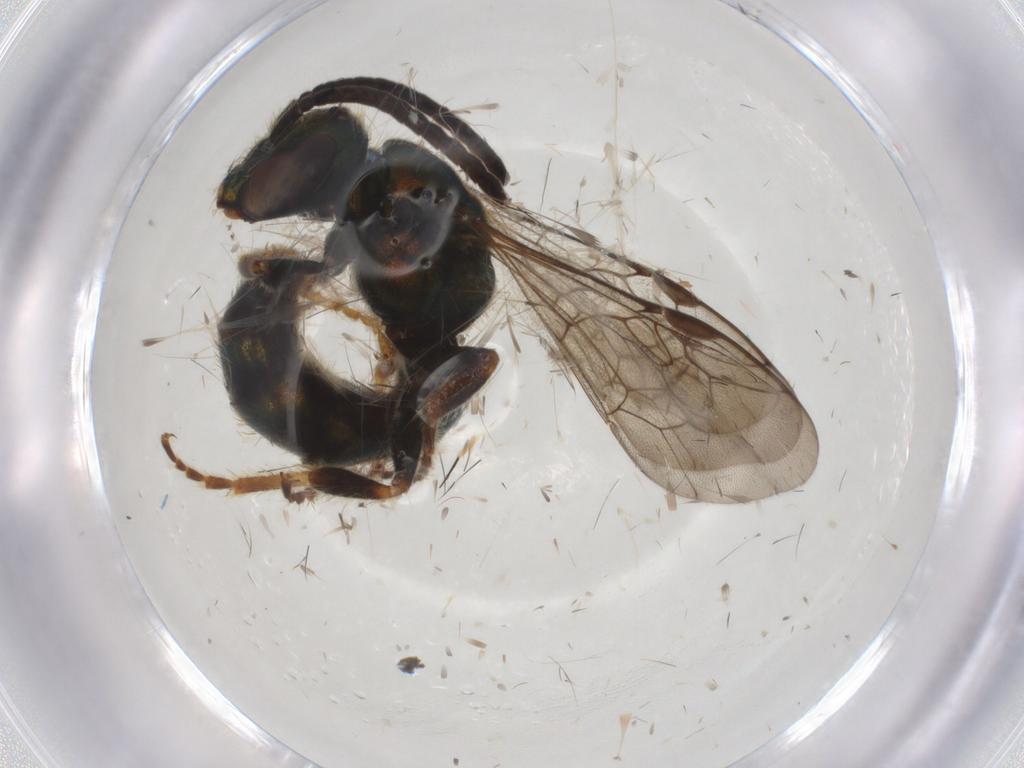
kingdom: Animalia
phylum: Arthropoda
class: Insecta
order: Hymenoptera
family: Halictidae
